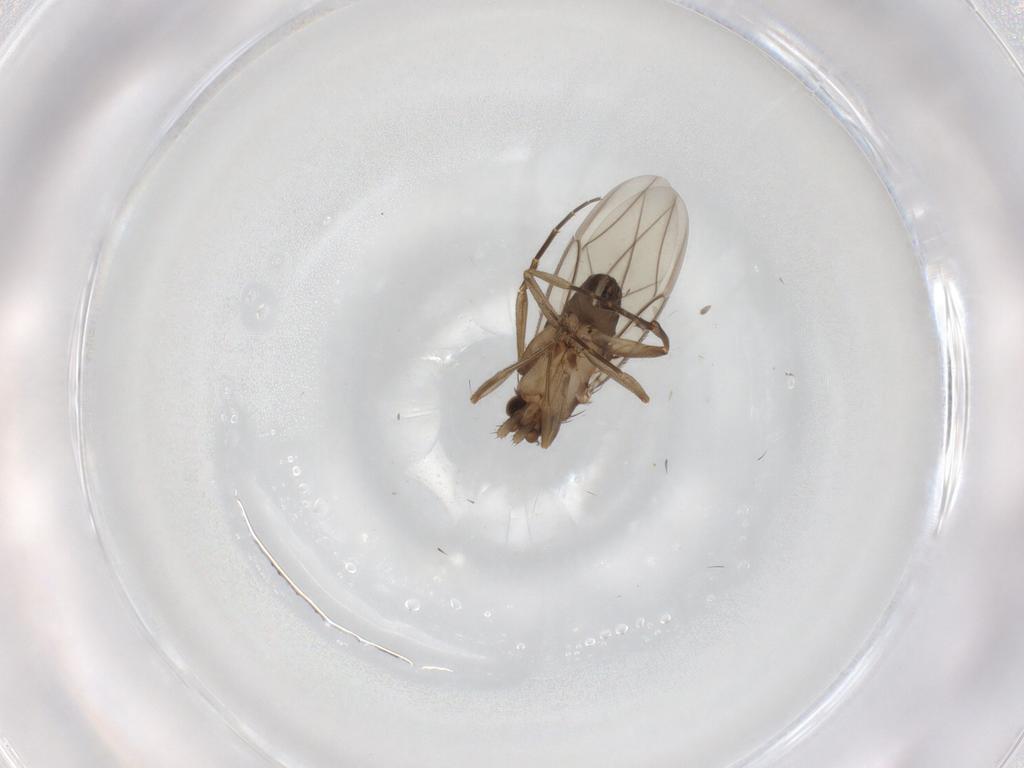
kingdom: Animalia
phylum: Arthropoda
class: Insecta
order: Diptera
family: Phoridae
